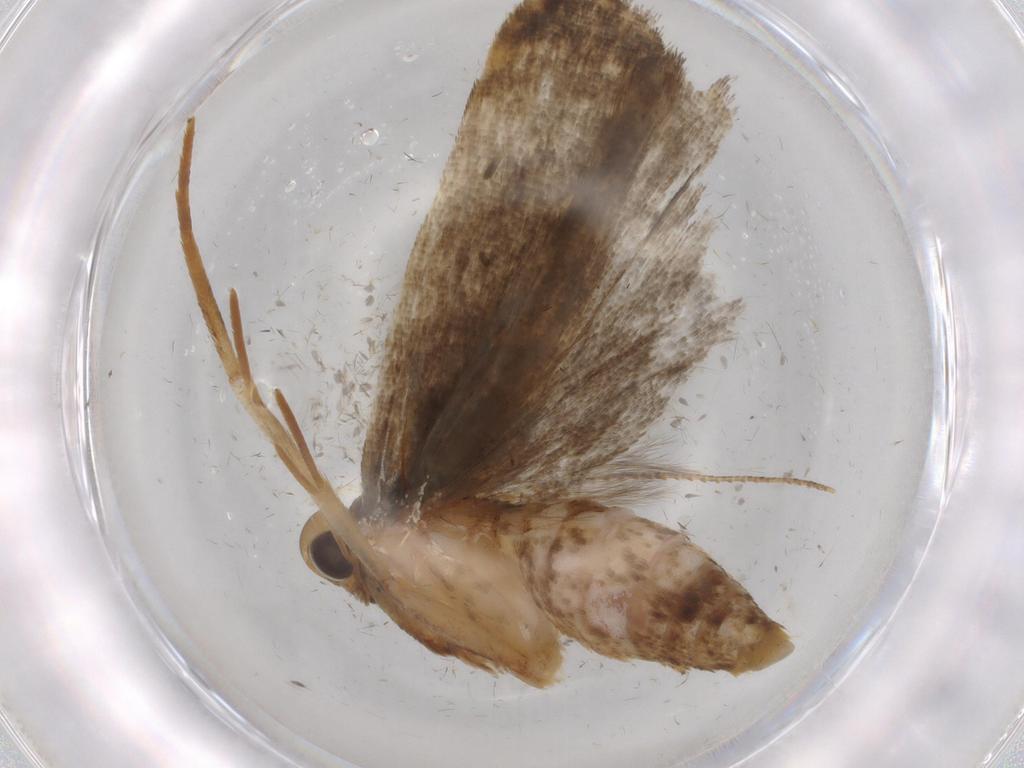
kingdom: Animalia
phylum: Arthropoda
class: Insecta
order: Lepidoptera
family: Gelechiidae
